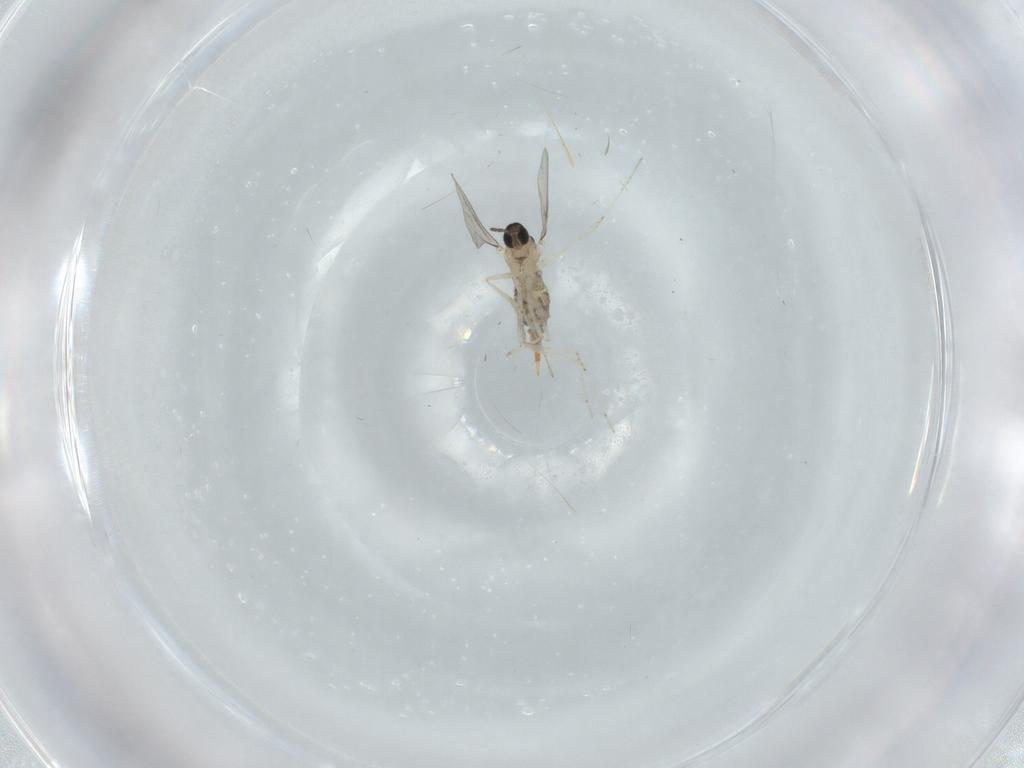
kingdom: Animalia
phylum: Arthropoda
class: Insecta
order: Diptera
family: Cecidomyiidae
